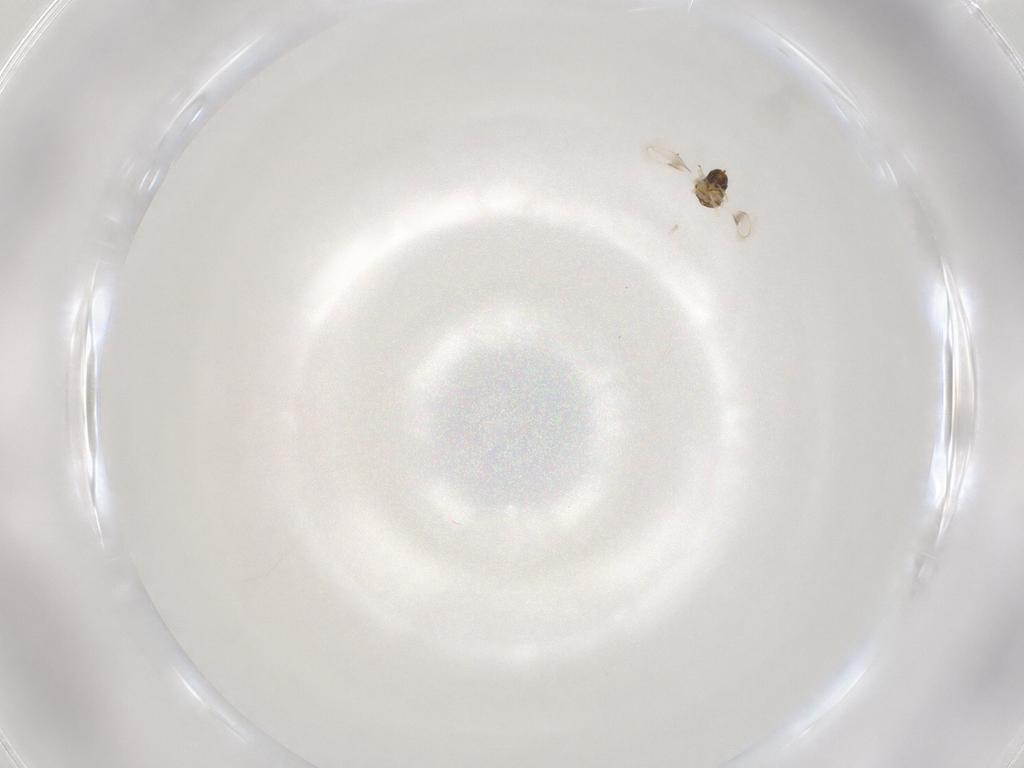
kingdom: Animalia
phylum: Arthropoda
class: Insecta
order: Hymenoptera
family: Aphelinidae
